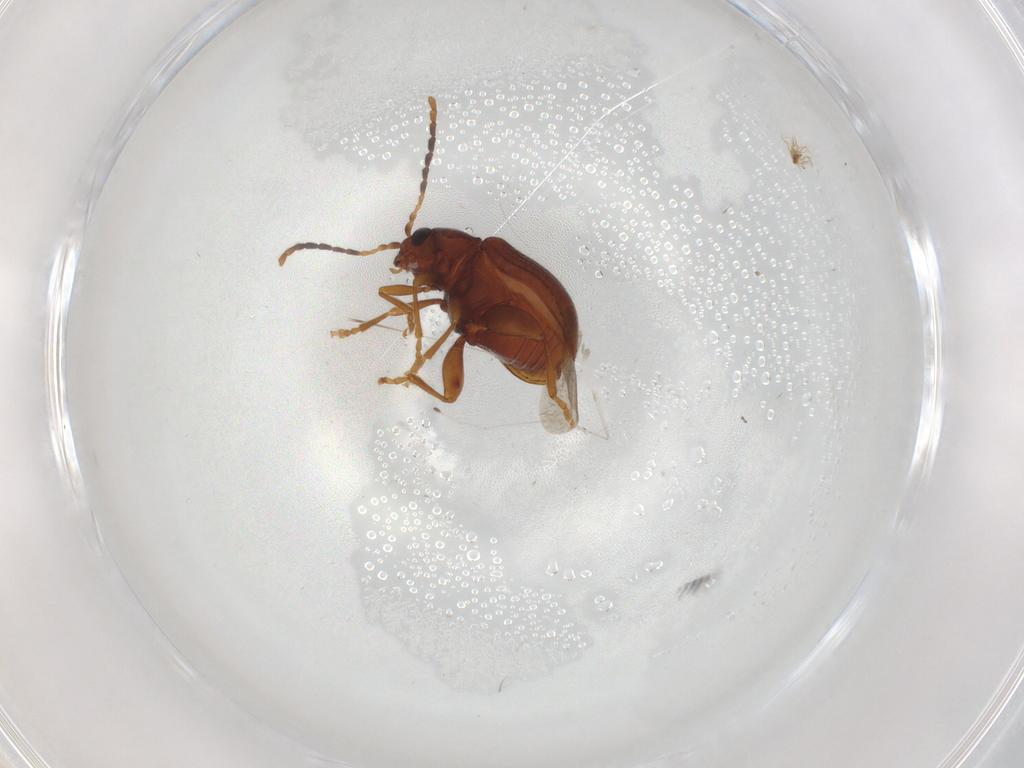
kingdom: Animalia
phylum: Arthropoda
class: Insecta
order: Coleoptera
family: Chrysomelidae
